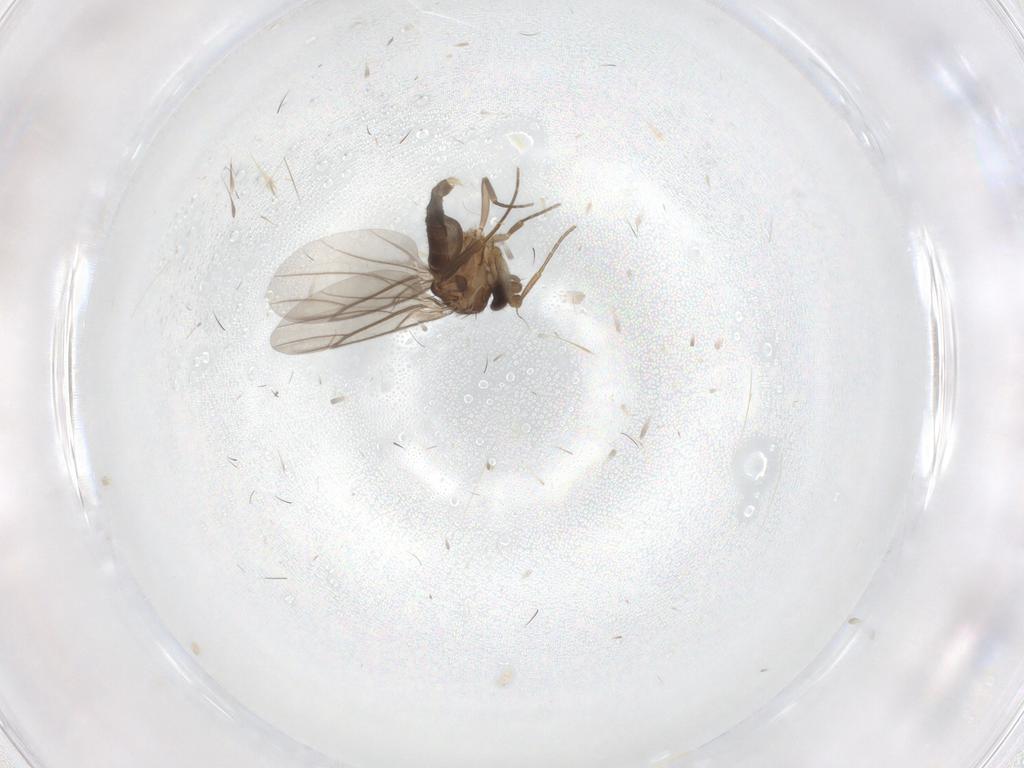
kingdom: Animalia
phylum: Arthropoda
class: Insecta
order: Diptera
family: Phoridae
